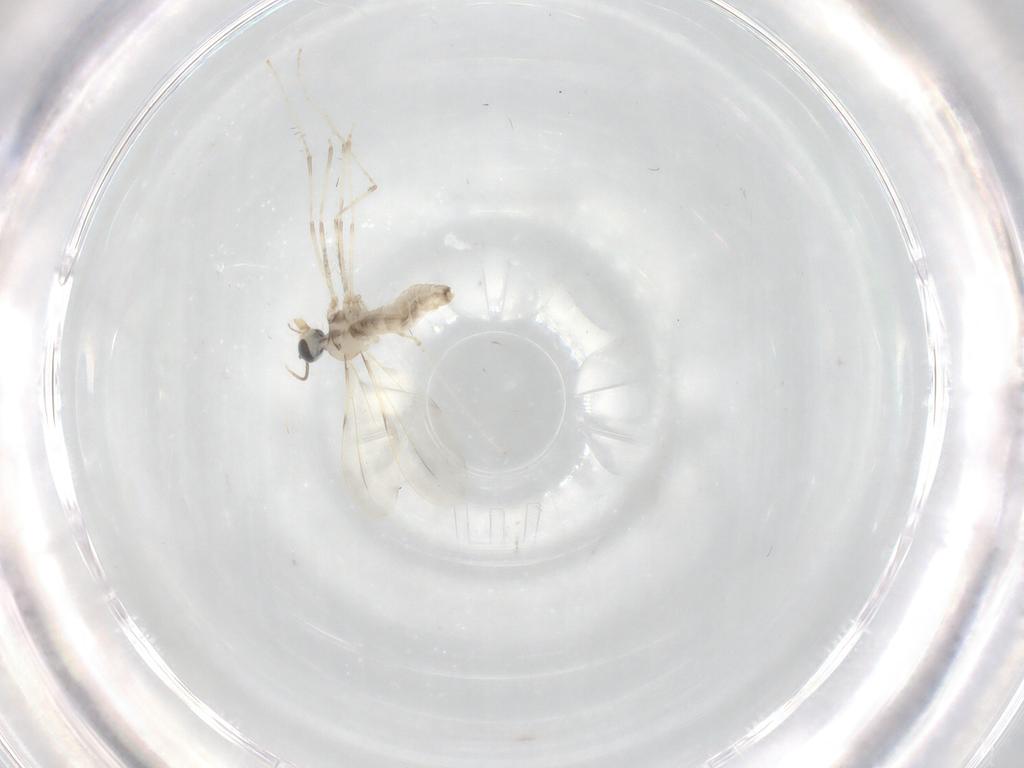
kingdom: Animalia
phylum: Arthropoda
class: Insecta
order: Diptera
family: Cecidomyiidae
